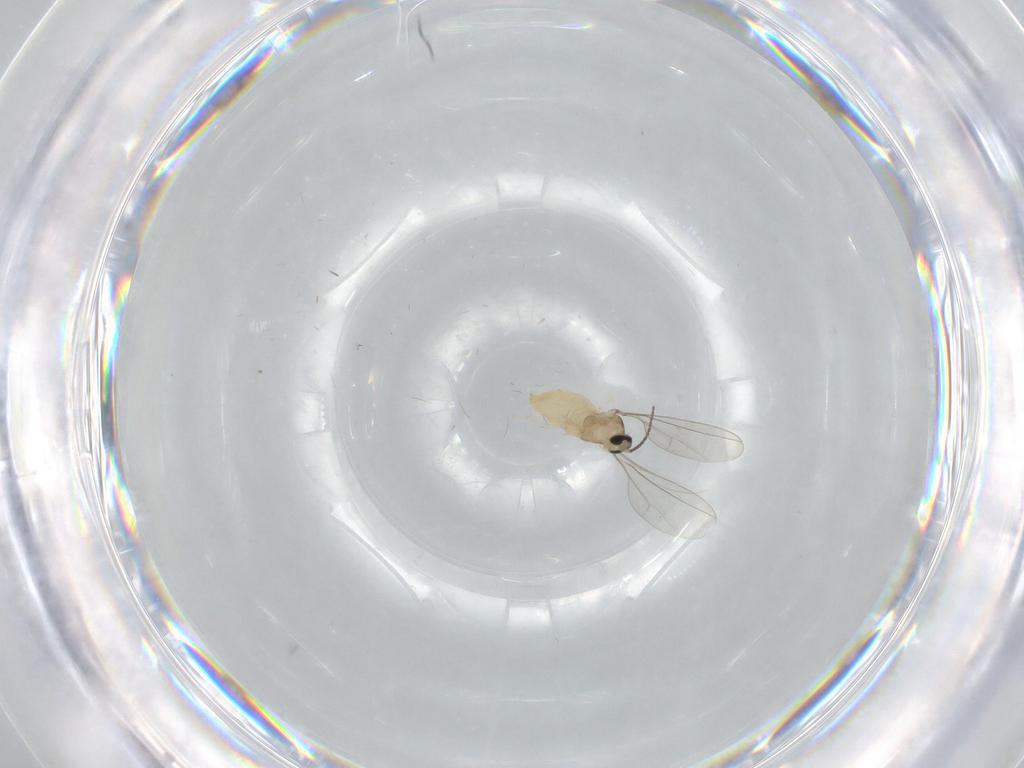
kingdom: Animalia
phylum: Arthropoda
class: Insecta
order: Diptera
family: Cecidomyiidae
